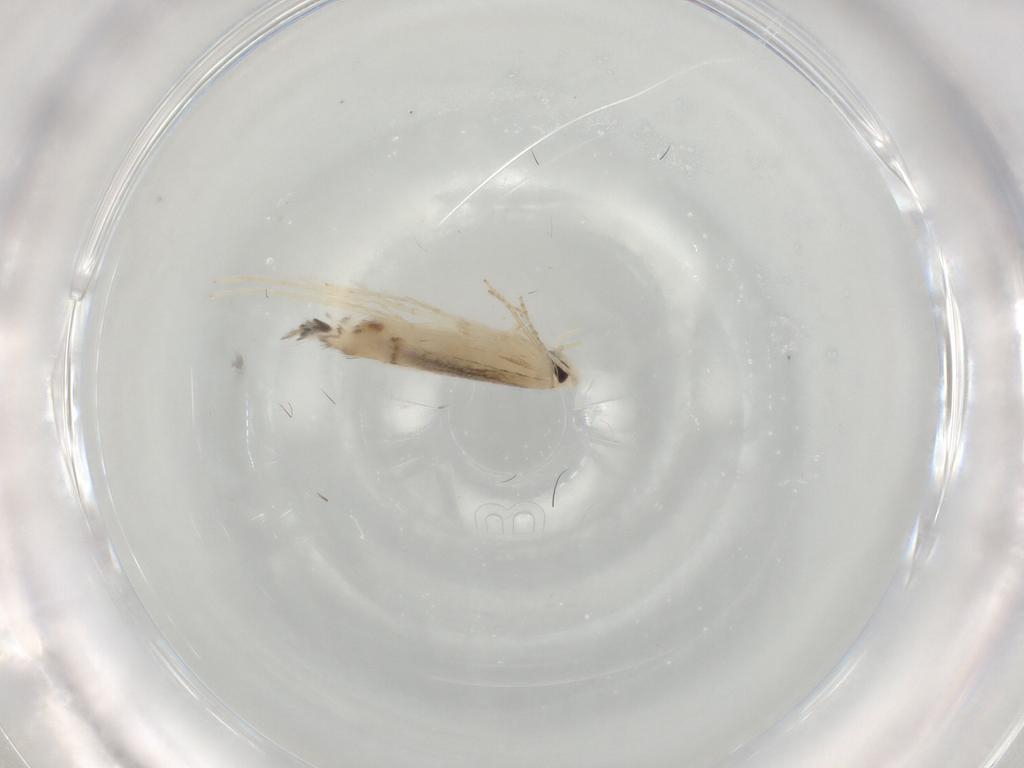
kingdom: Animalia
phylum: Arthropoda
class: Insecta
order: Lepidoptera
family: Gracillariidae
